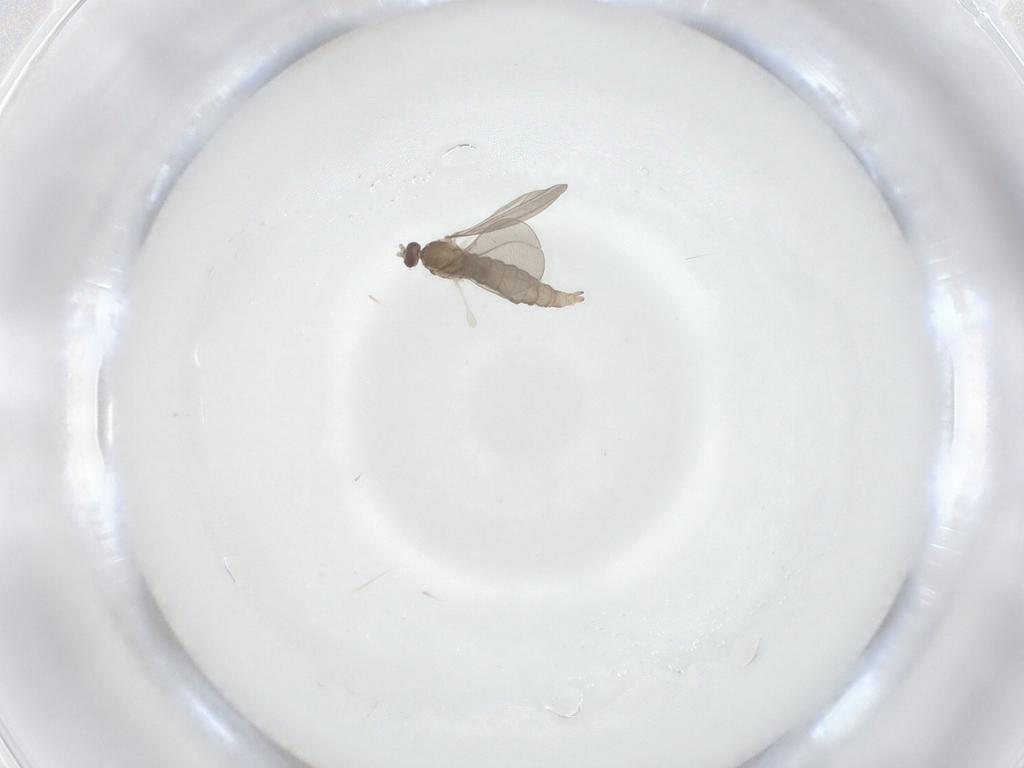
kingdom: Animalia
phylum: Arthropoda
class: Insecta
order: Diptera
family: Cecidomyiidae
